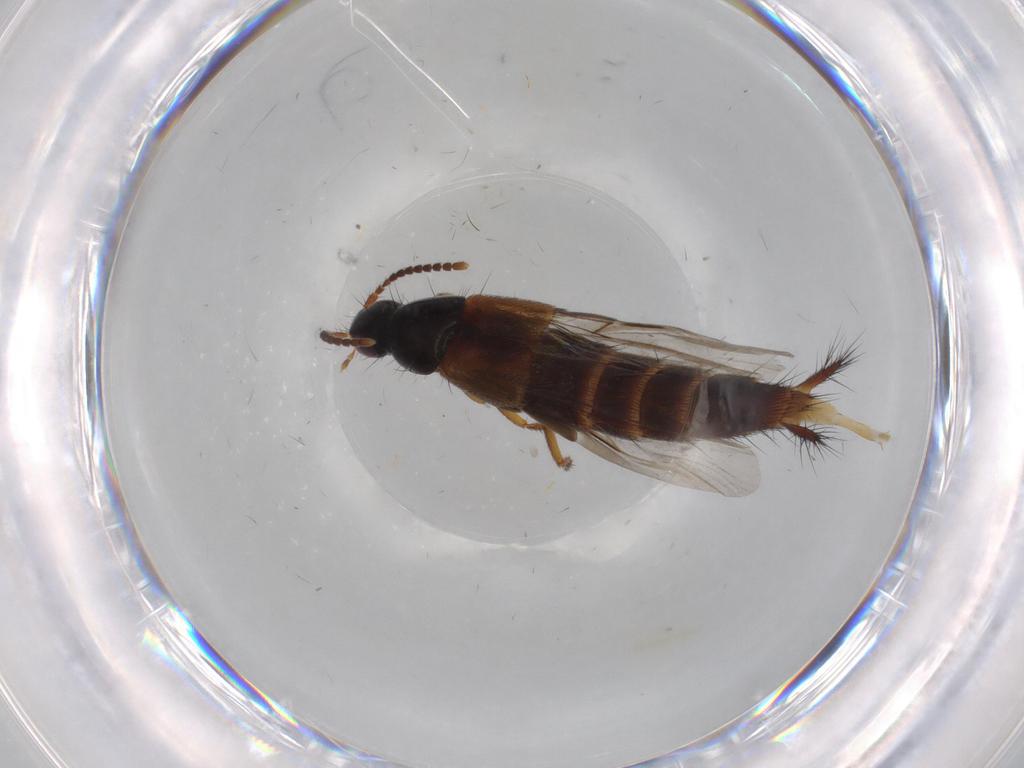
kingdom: Animalia
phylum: Arthropoda
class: Insecta
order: Coleoptera
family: Staphylinidae
